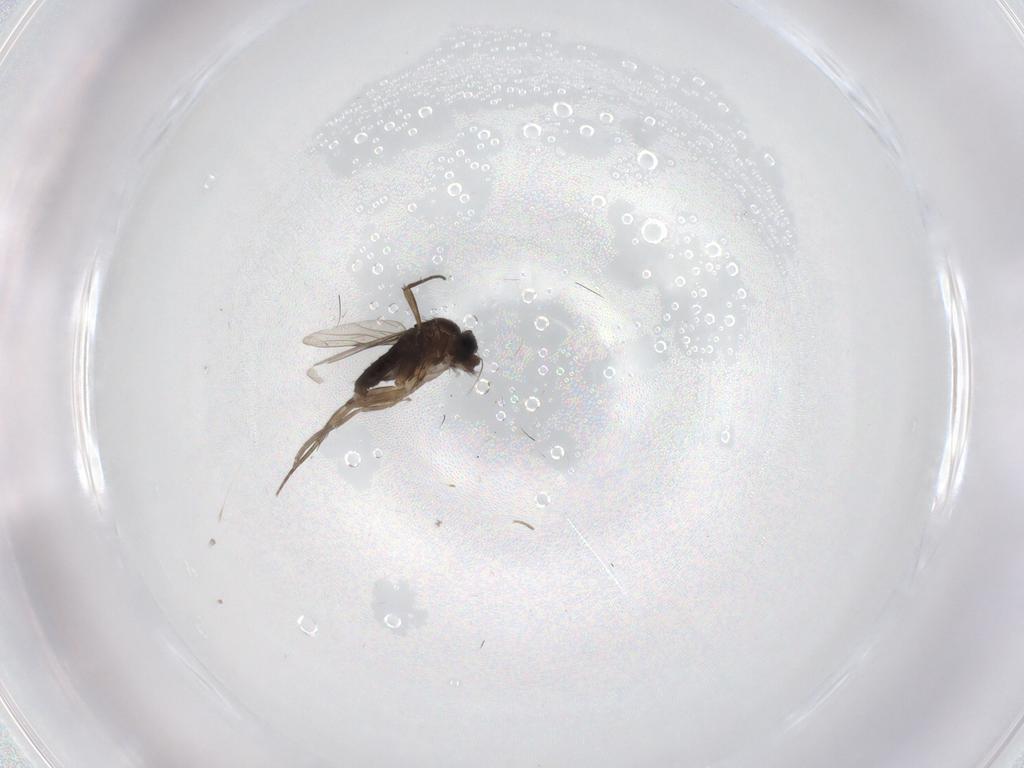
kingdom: Animalia
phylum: Arthropoda
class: Insecta
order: Diptera
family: Phoridae
